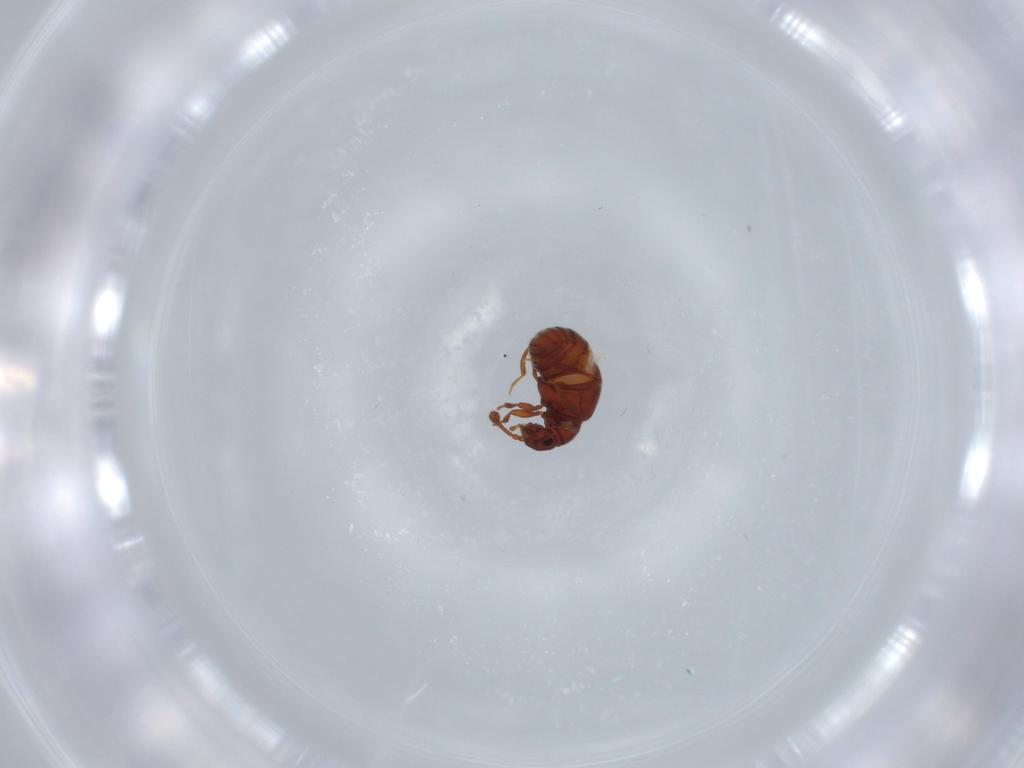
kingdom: Animalia
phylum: Arthropoda
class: Insecta
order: Coleoptera
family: Staphylinidae
